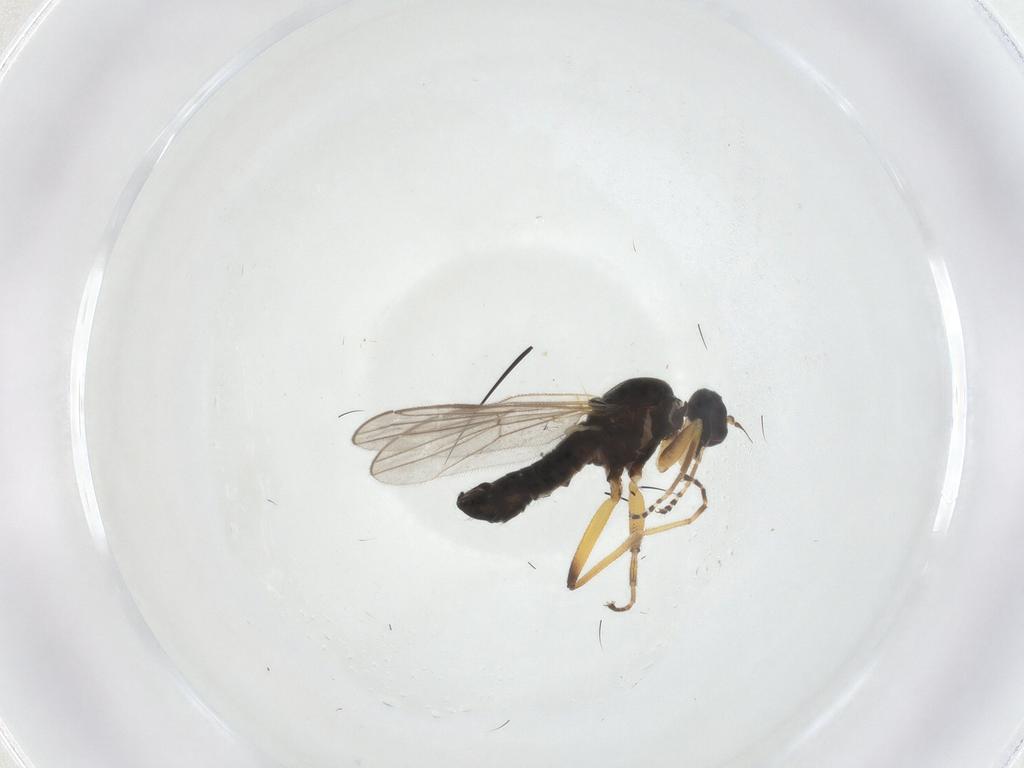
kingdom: Animalia
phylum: Arthropoda
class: Insecta
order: Diptera
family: Hybotidae
